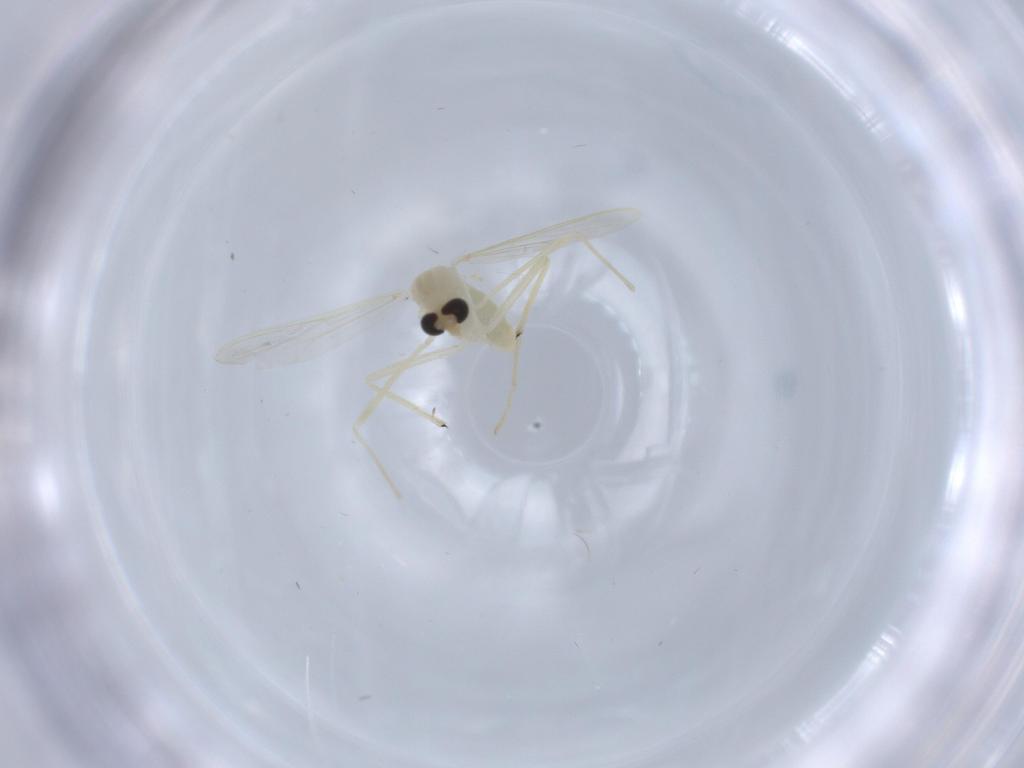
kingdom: Animalia
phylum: Arthropoda
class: Insecta
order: Diptera
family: Chironomidae
